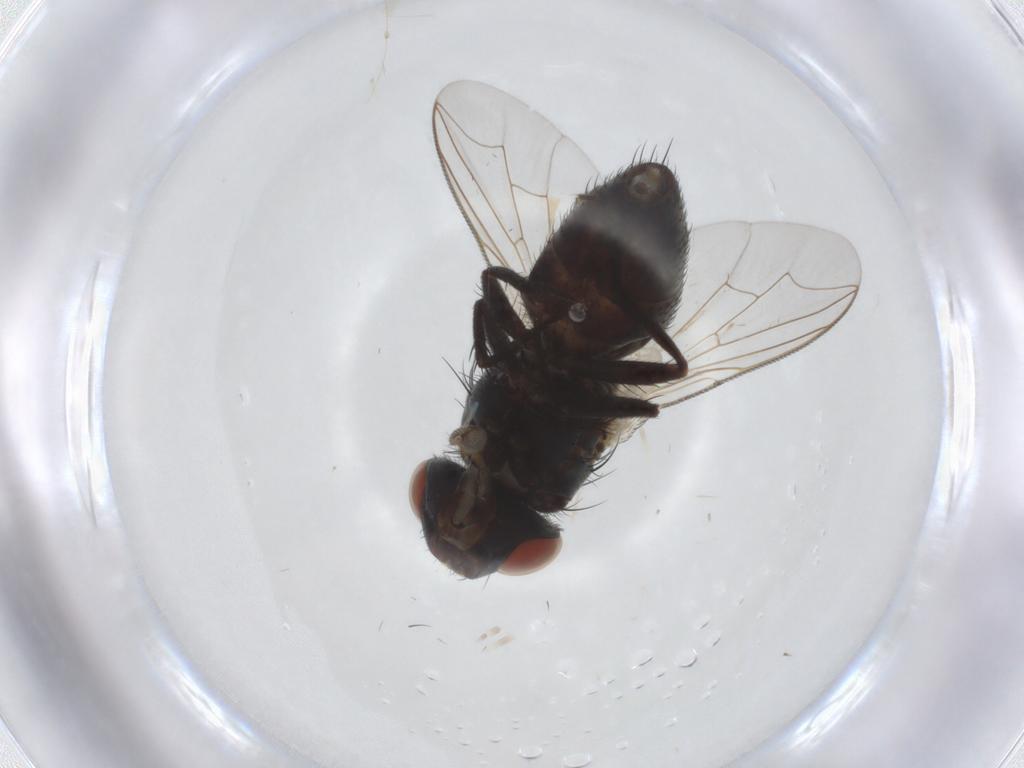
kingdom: Animalia
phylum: Arthropoda
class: Insecta
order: Diptera
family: Sarcophagidae
